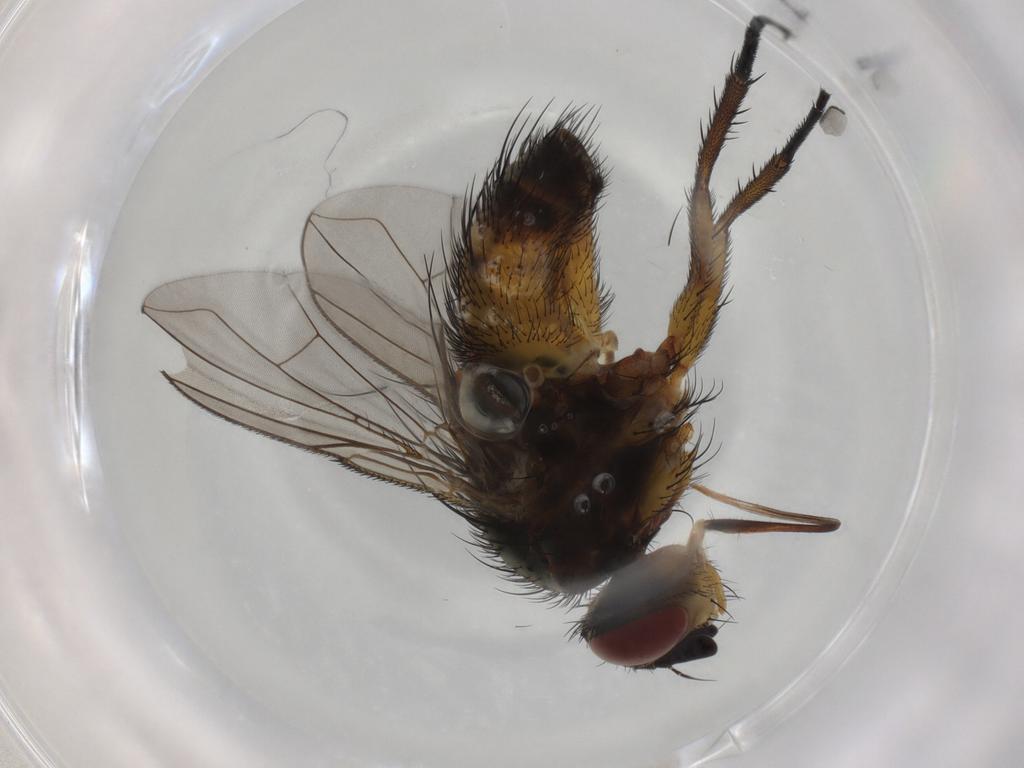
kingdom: Animalia
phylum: Arthropoda
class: Insecta
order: Diptera
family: Tachinidae
